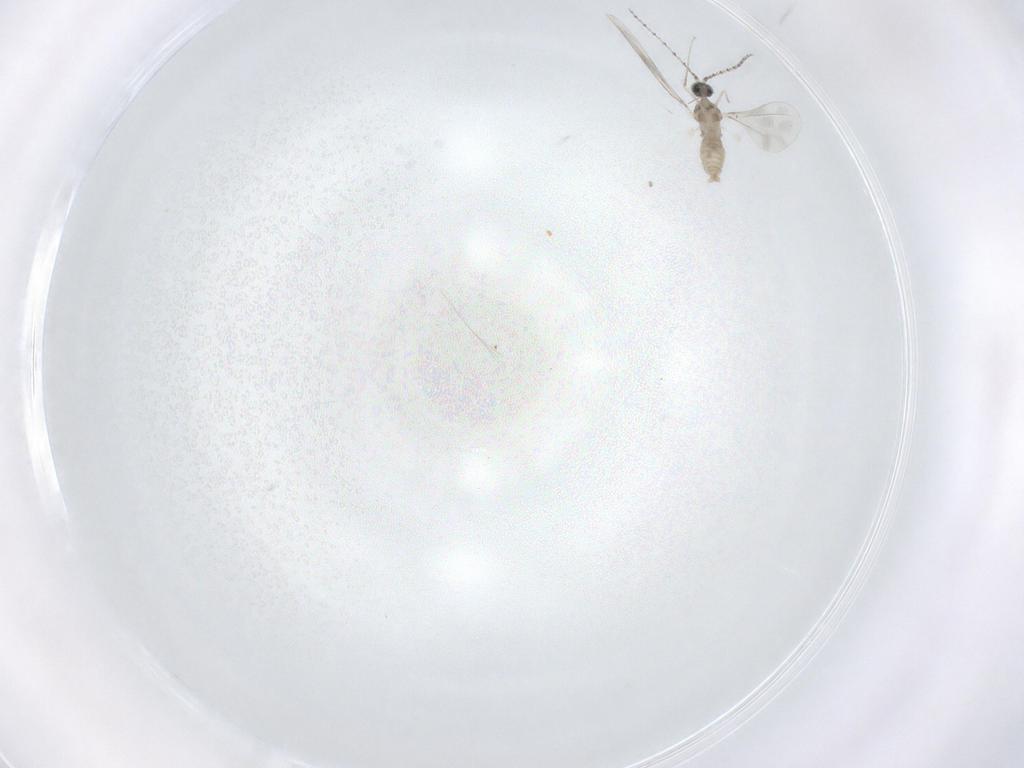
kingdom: Animalia
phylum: Arthropoda
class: Insecta
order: Diptera
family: Cecidomyiidae
